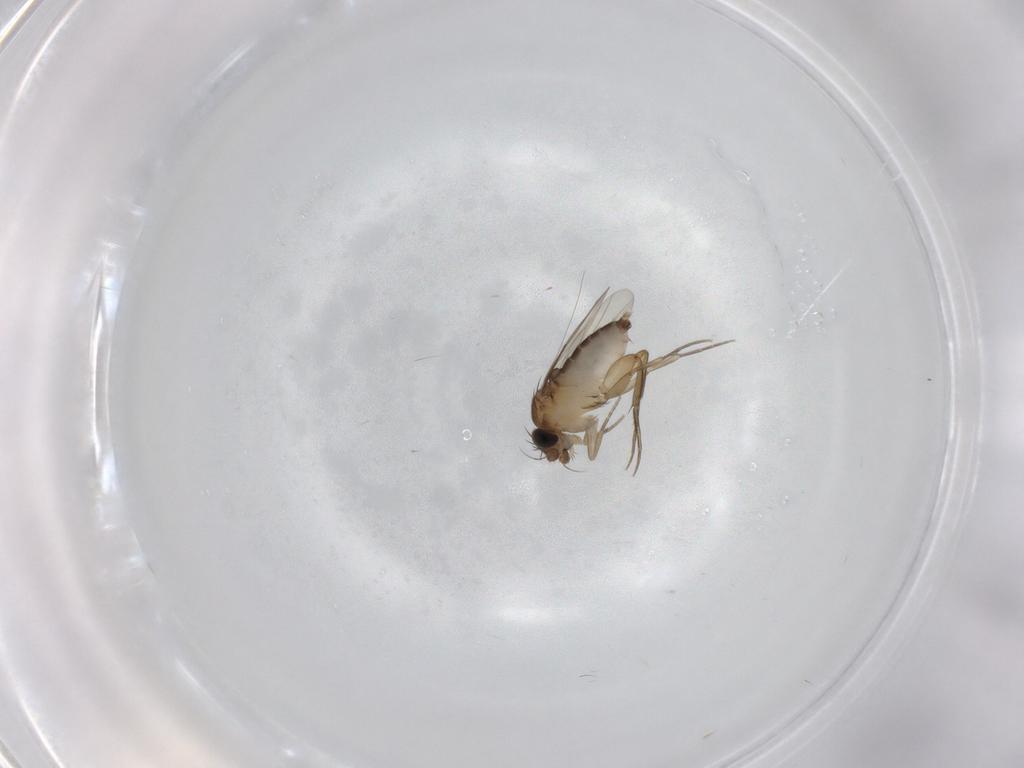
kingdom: Animalia
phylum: Arthropoda
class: Insecta
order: Diptera
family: Phoridae
